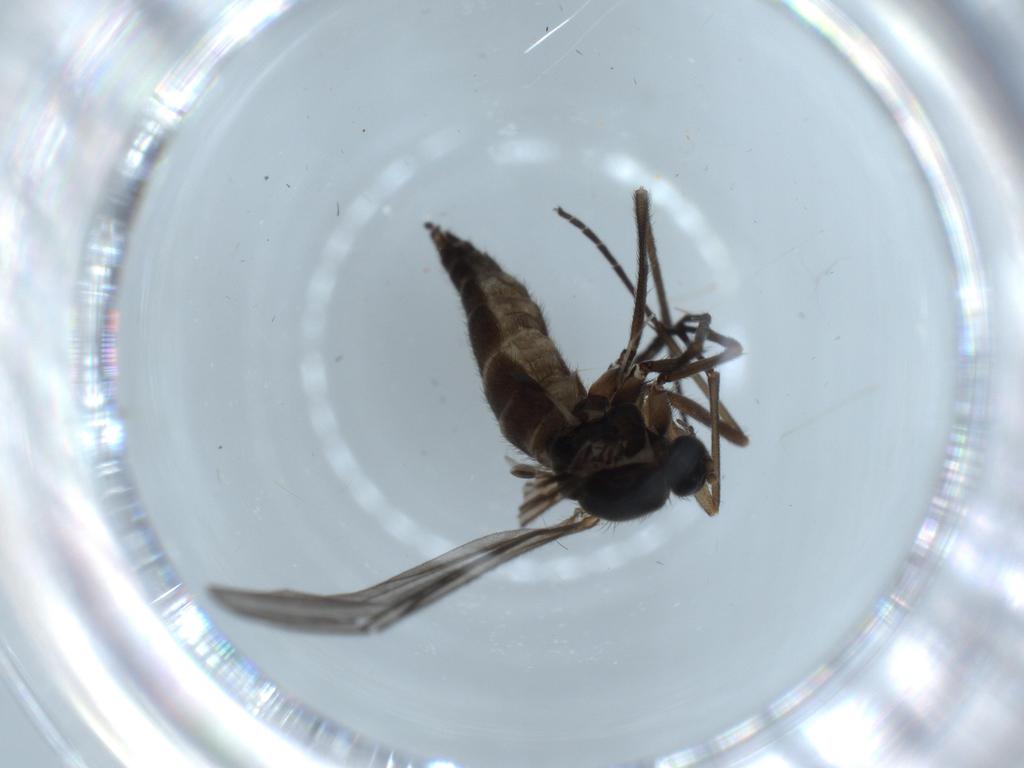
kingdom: Animalia
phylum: Arthropoda
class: Insecta
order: Diptera
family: Sciaridae
